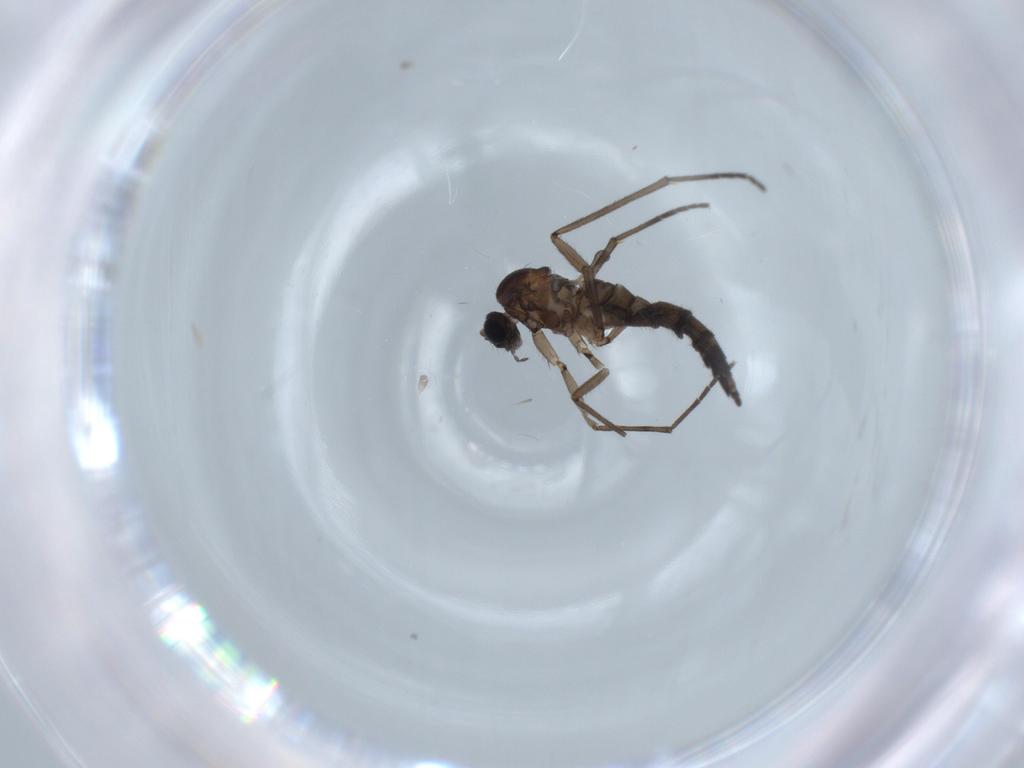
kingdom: Animalia
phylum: Arthropoda
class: Insecta
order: Diptera
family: Sciaridae
